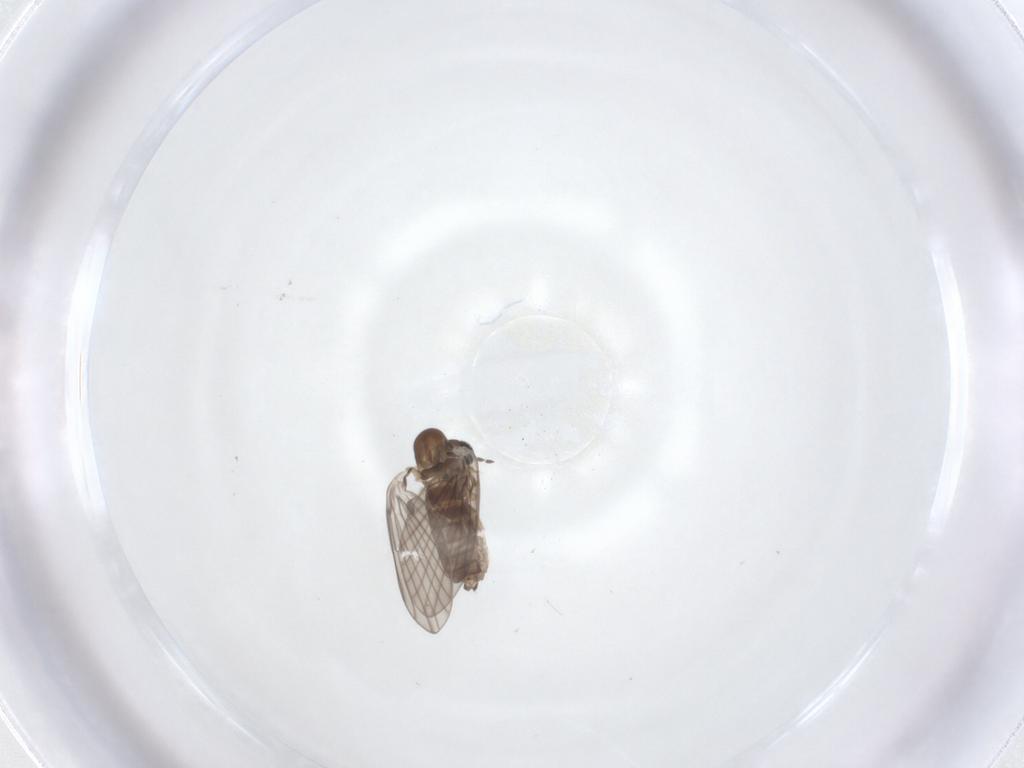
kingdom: Animalia
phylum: Arthropoda
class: Insecta
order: Diptera
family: Psychodidae
